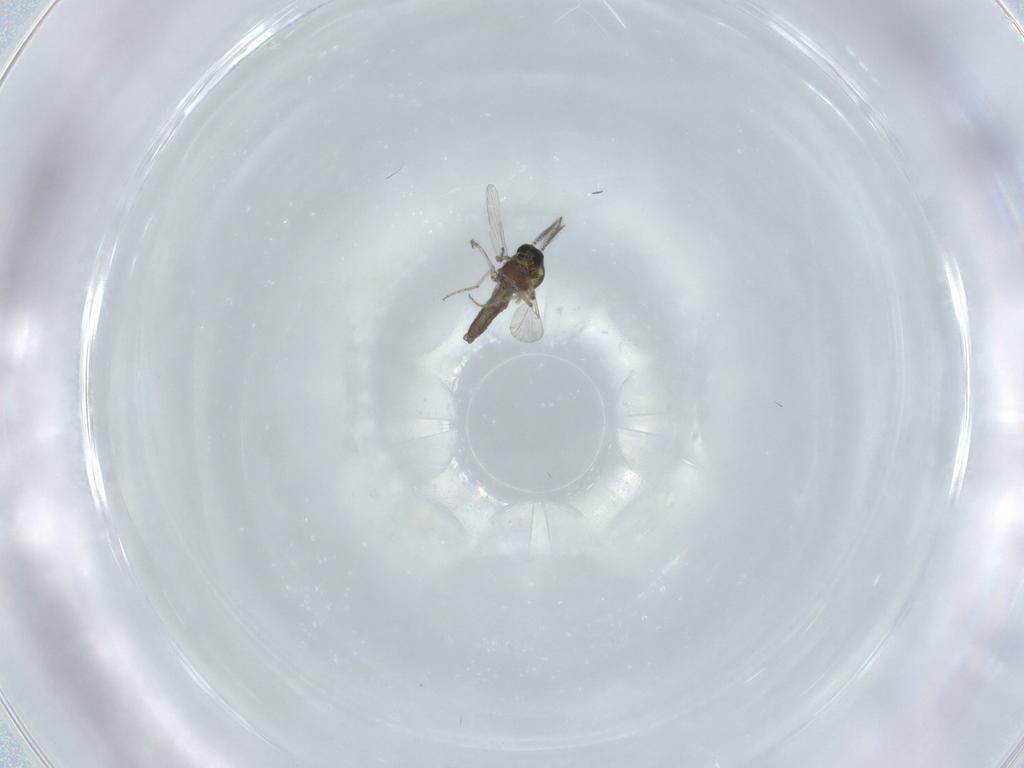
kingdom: Animalia
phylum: Arthropoda
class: Insecta
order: Diptera
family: Ceratopogonidae
